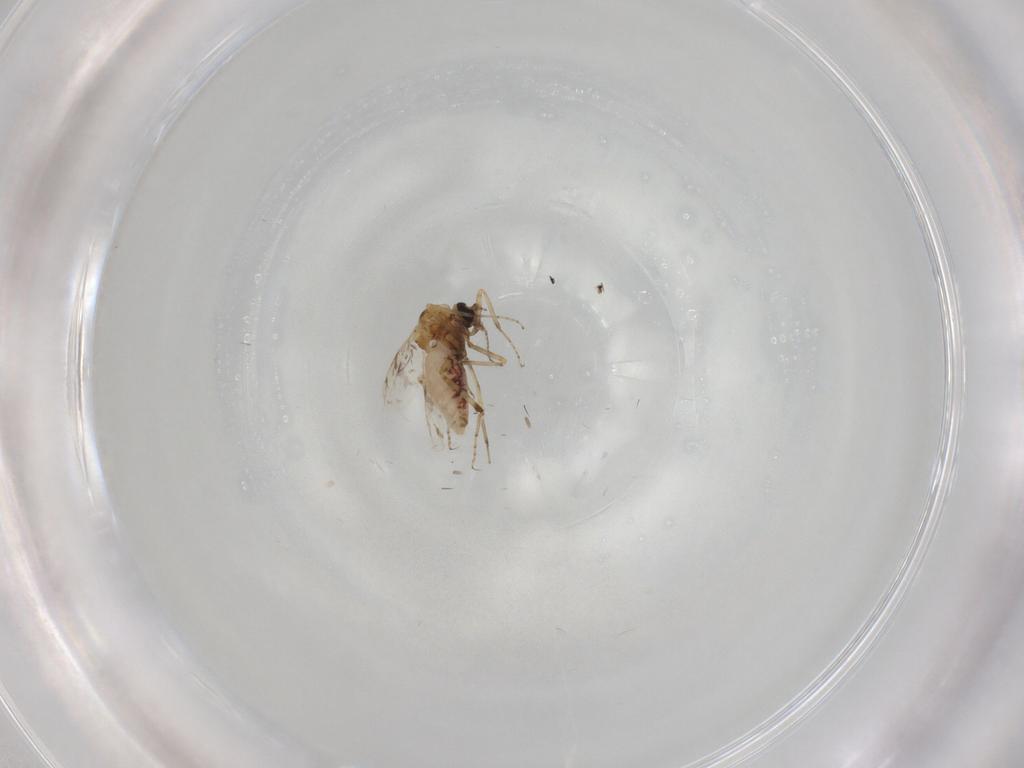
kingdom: Animalia
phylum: Arthropoda
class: Insecta
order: Diptera
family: Ceratopogonidae
